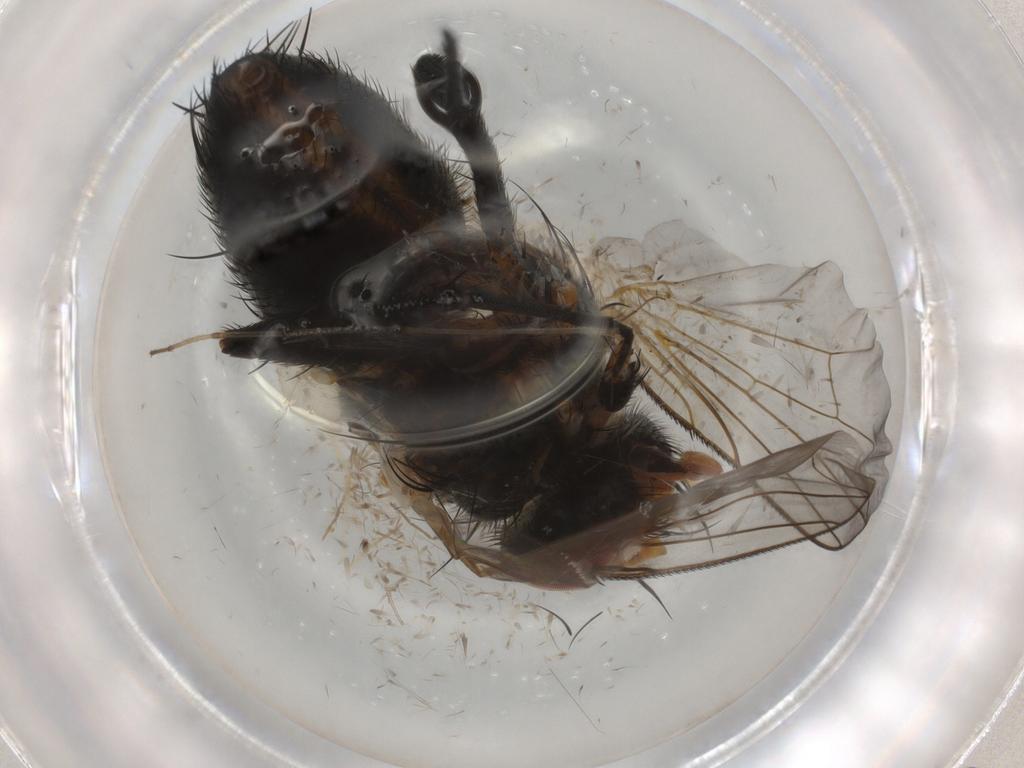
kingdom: Animalia
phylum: Arthropoda
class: Insecta
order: Diptera
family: Tachinidae
